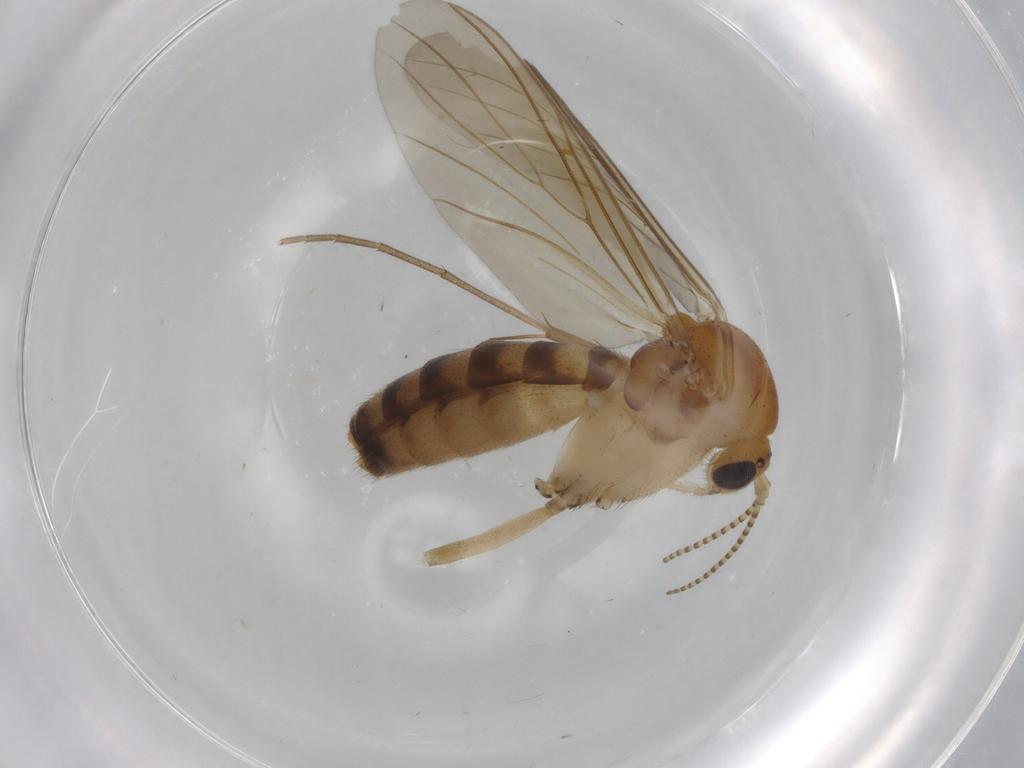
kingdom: Animalia
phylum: Arthropoda
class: Insecta
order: Diptera
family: Mycetophilidae
